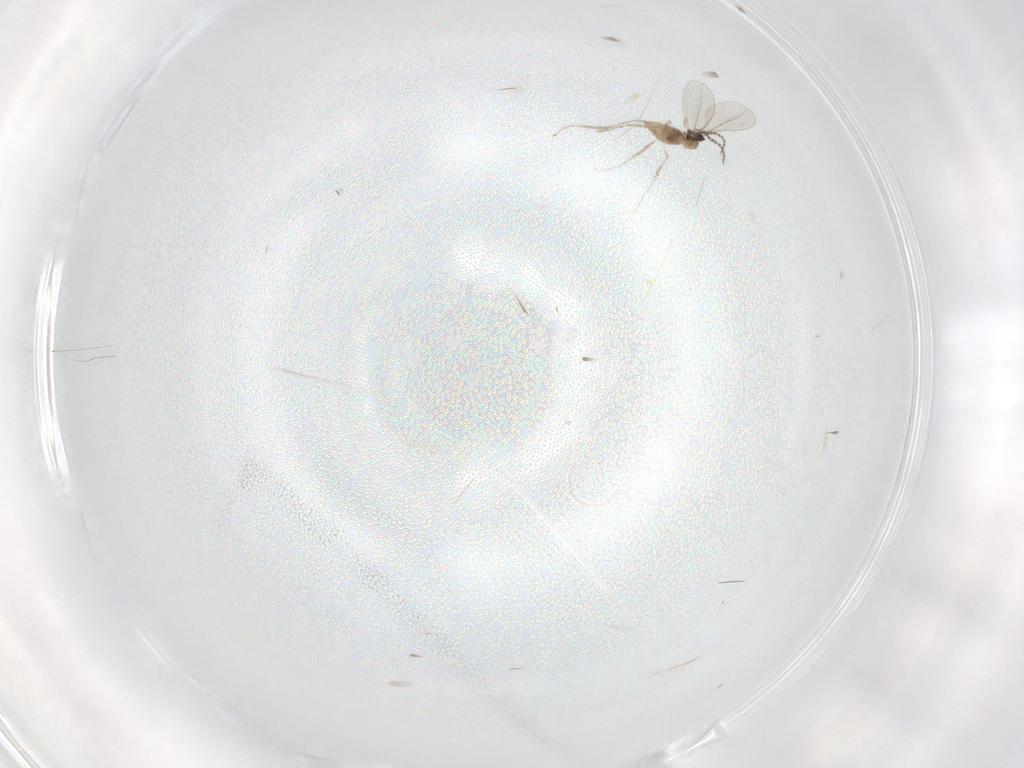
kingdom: Animalia
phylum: Arthropoda
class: Insecta
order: Diptera
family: Cecidomyiidae
